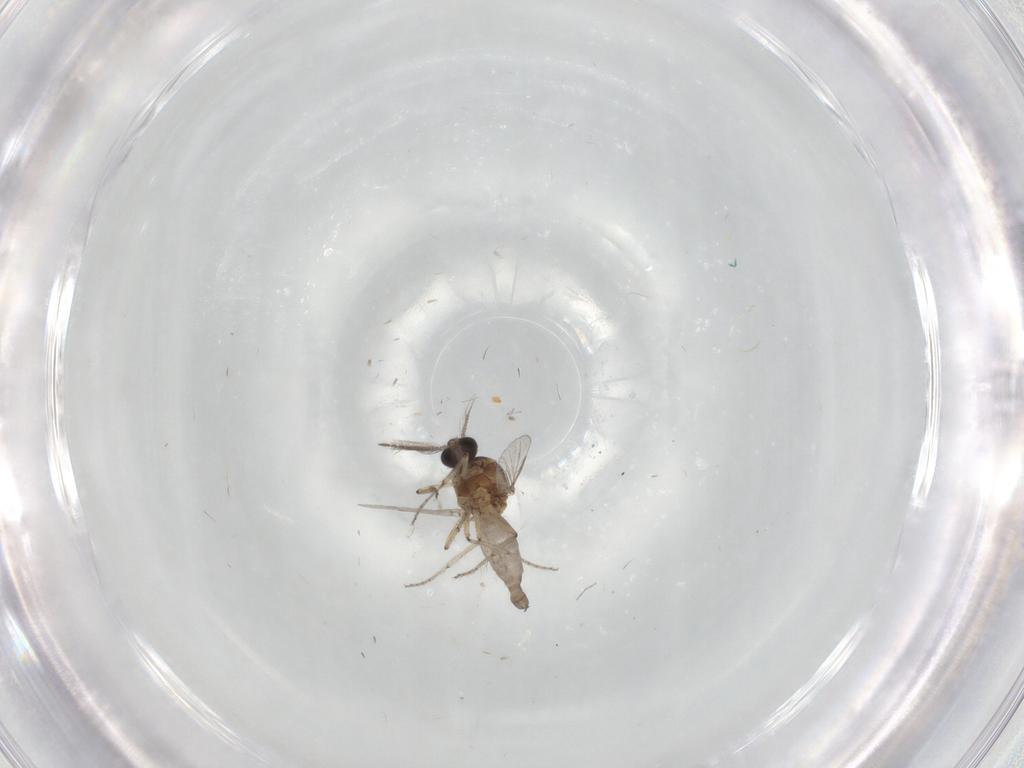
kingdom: Animalia
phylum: Arthropoda
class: Insecta
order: Diptera
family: Ceratopogonidae
